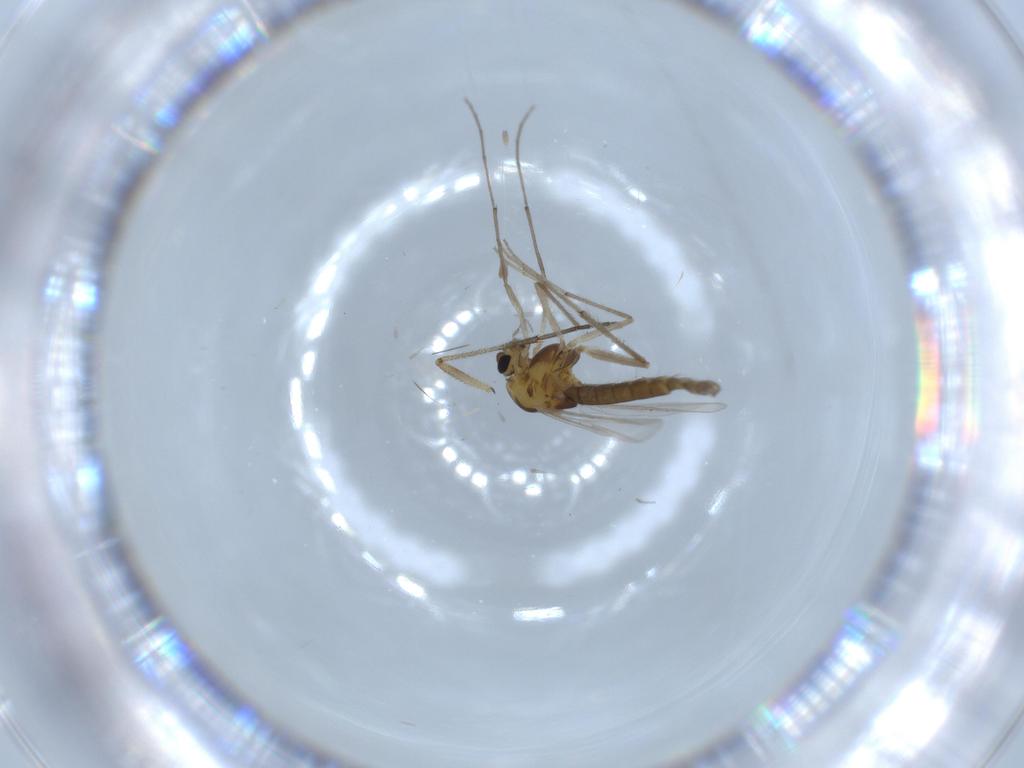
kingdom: Animalia
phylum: Arthropoda
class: Insecta
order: Diptera
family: Chironomidae
